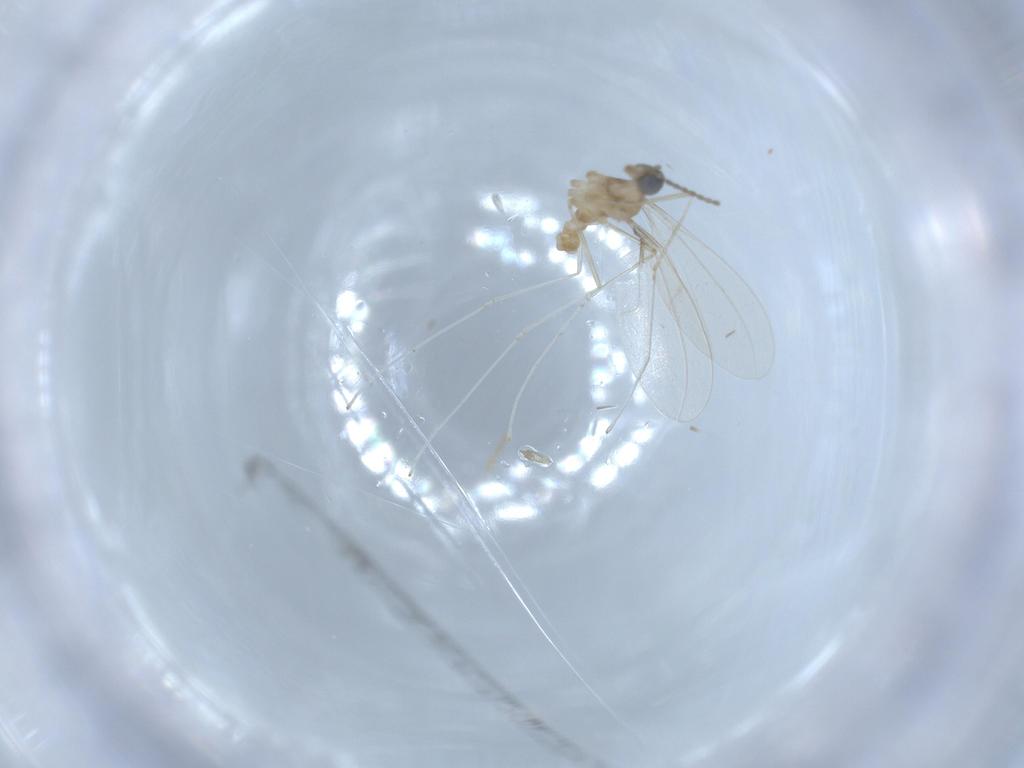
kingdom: Animalia
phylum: Arthropoda
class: Insecta
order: Diptera
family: Cecidomyiidae
